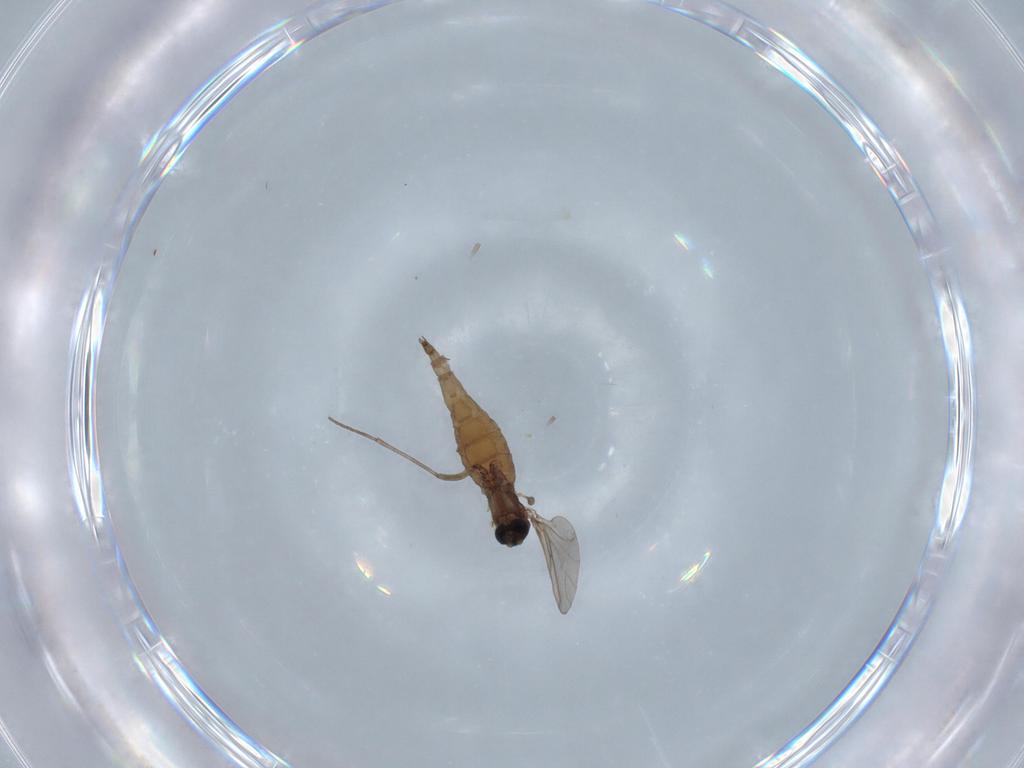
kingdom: Animalia
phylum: Arthropoda
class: Insecta
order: Diptera
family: Sciaridae
